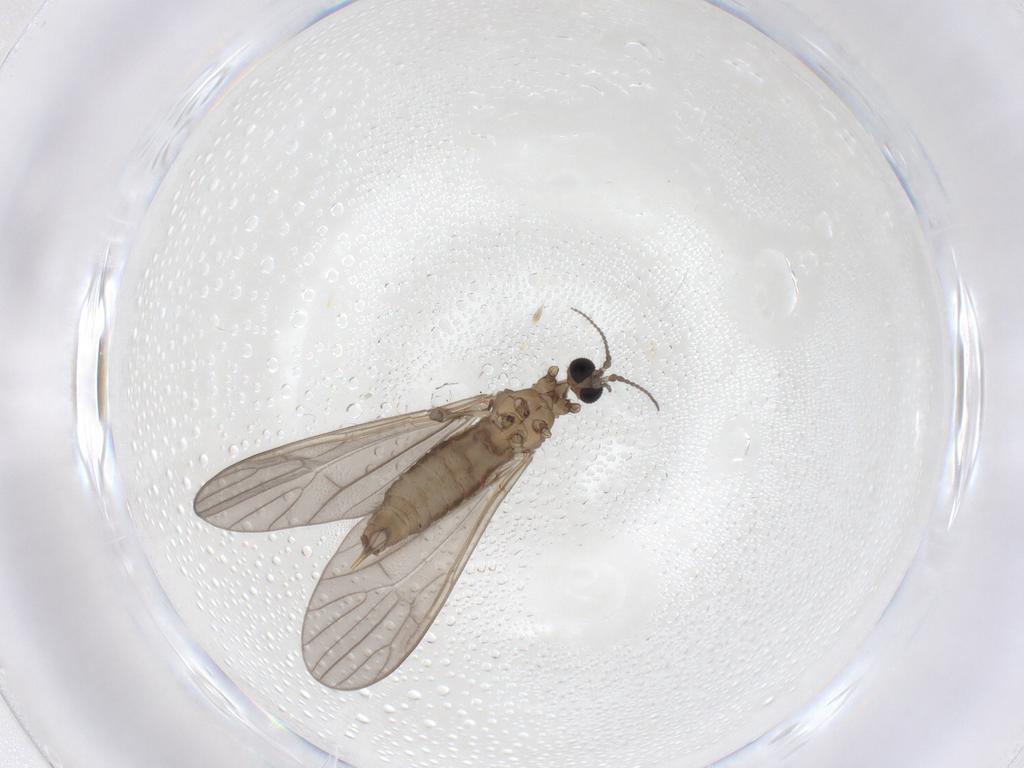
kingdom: Animalia
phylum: Arthropoda
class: Insecta
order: Diptera
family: Limoniidae
